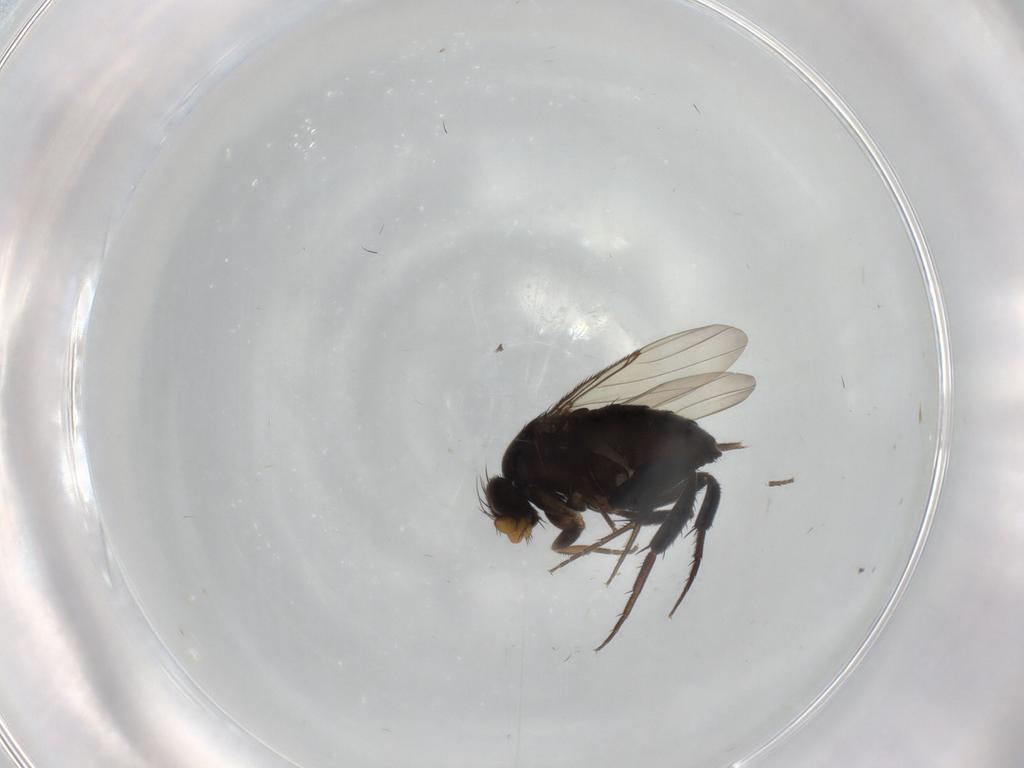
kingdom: Animalia
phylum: Arthropoda
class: Insecta
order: Diptera
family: Phoridae
